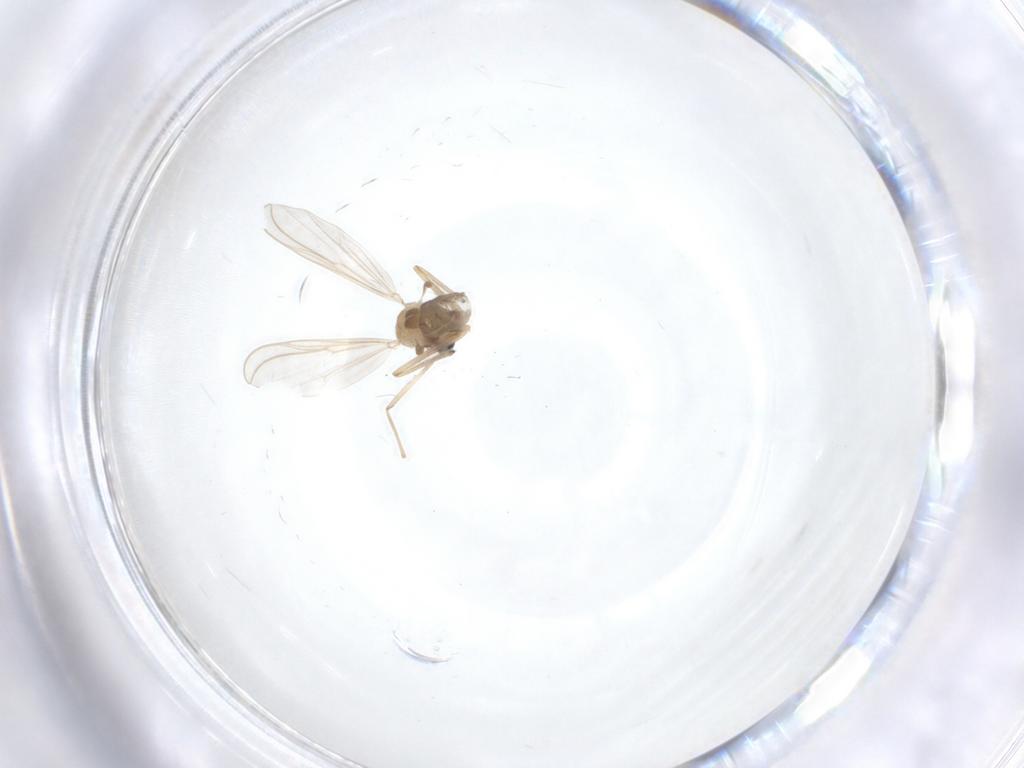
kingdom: Animalia
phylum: Arthropoda
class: Insecta
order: Diptera
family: Chironomidae
